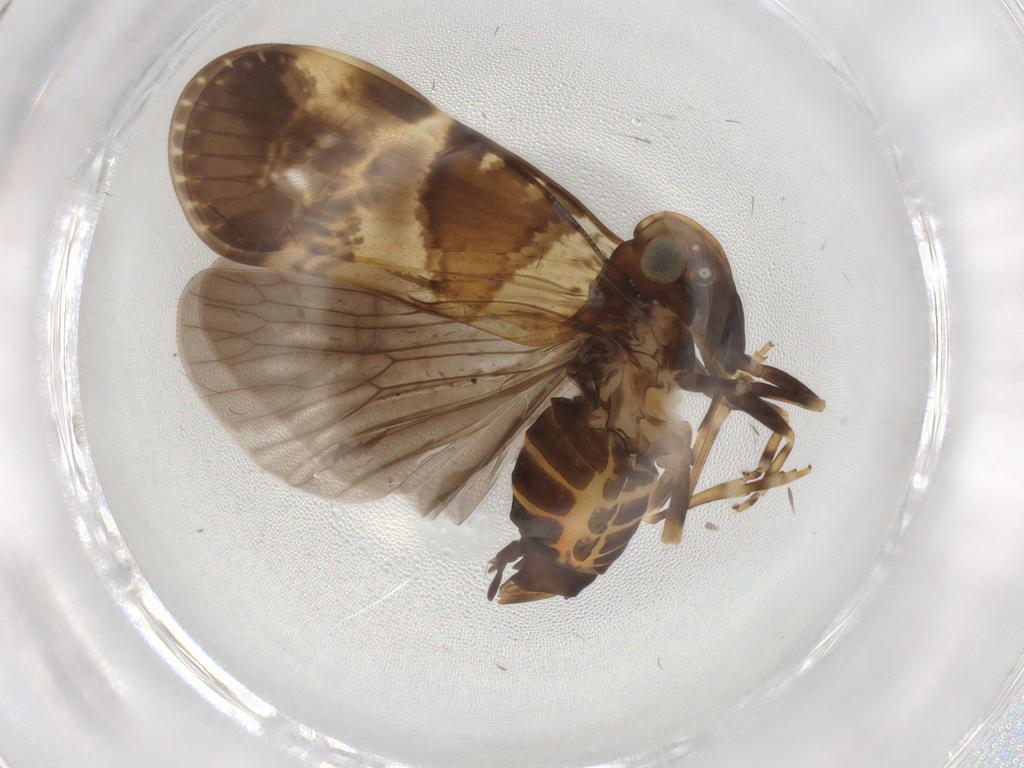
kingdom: Animalia
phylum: Arthropoda
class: Insecta
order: Hemiptera
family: Cixiidae
